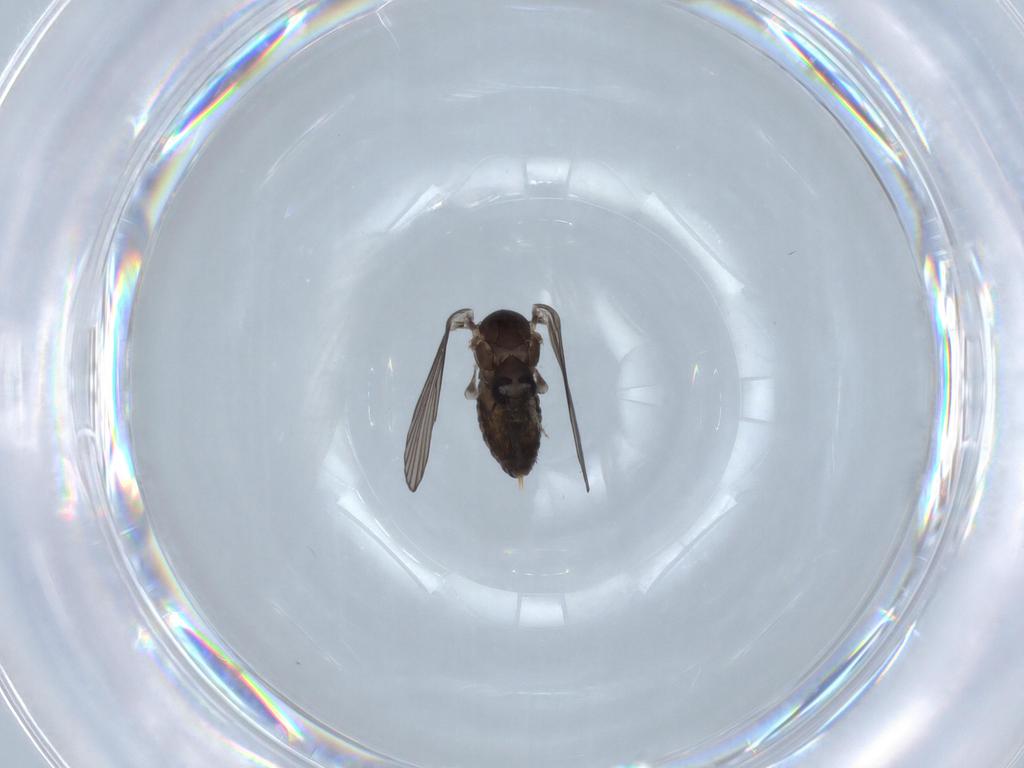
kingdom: Animalia
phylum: Arthropoda
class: Insecta
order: Diptera
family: Psychodidae
